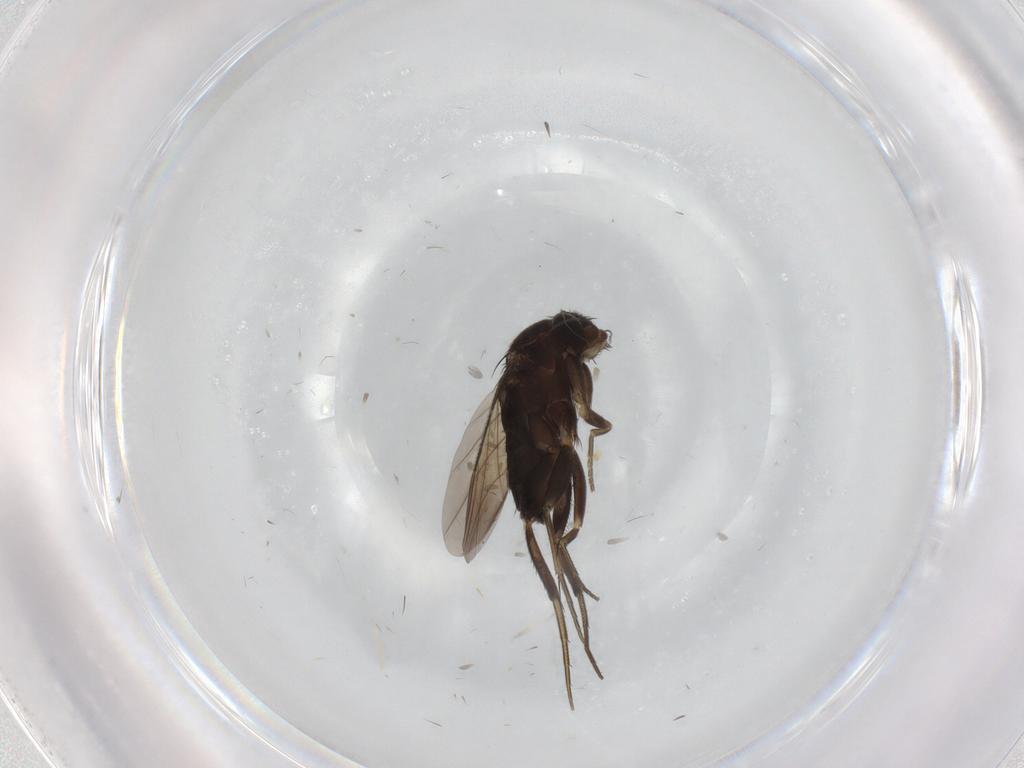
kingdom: Animalia
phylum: Arthropoda
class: Insecta
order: Diptera
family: Phoridae
